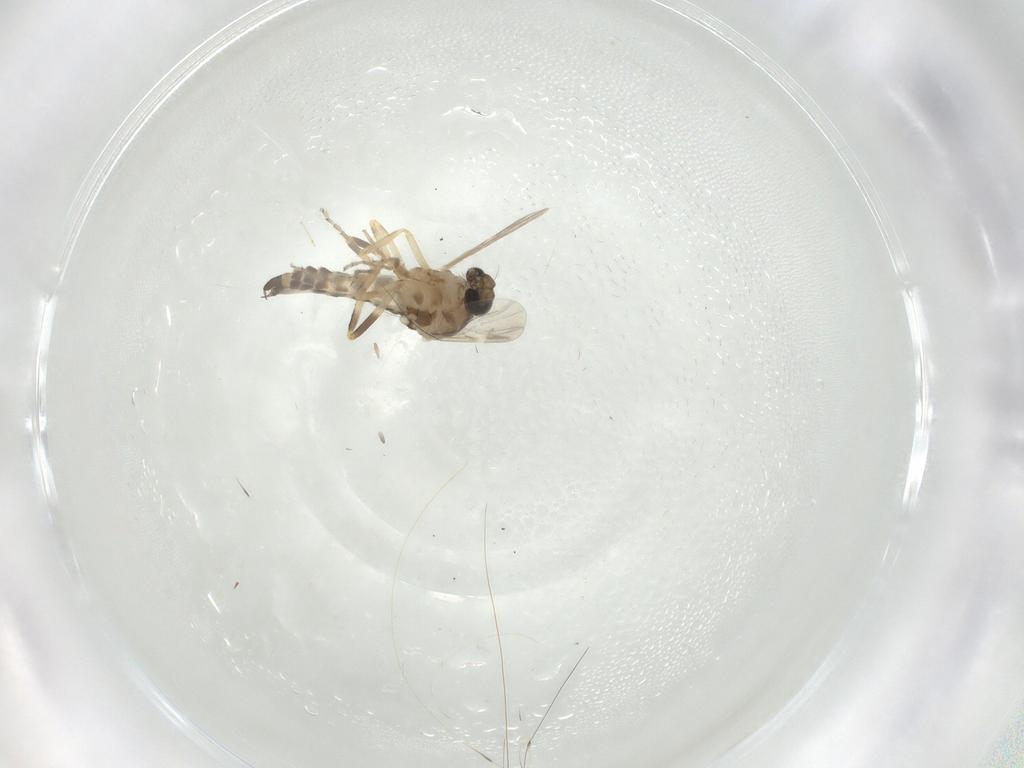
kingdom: Animalia
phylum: Arthropoda
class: Insecta
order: Diptera
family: Ceratopogonidae
